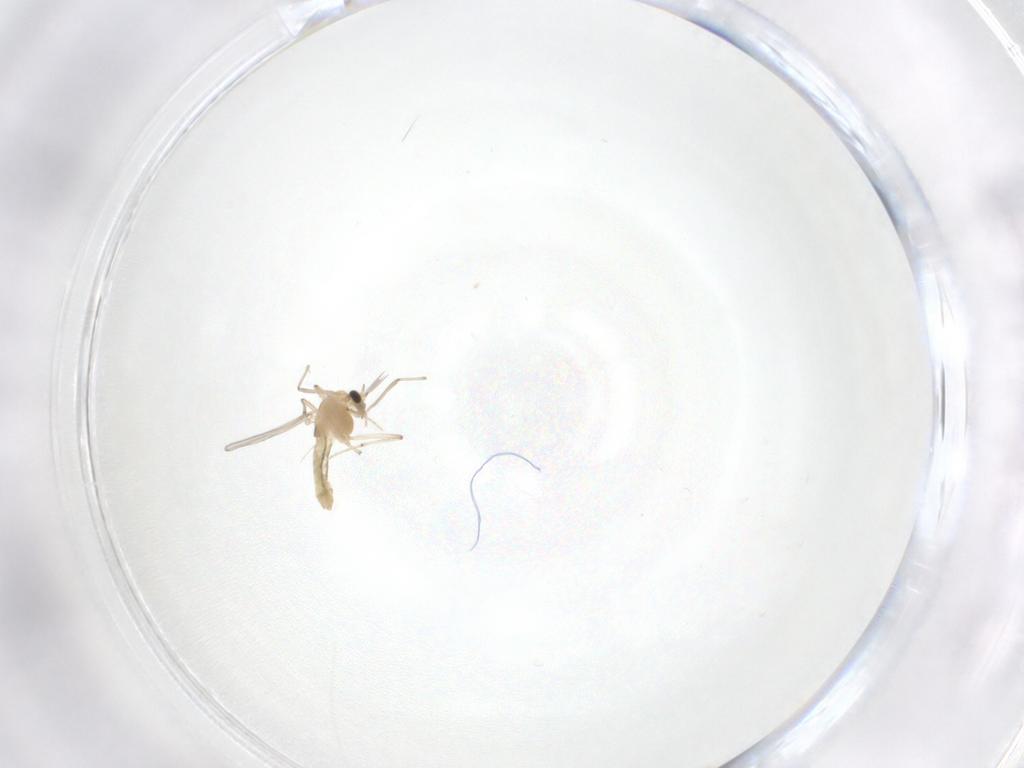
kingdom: Animalia
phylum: Arthropoda
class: Insecta
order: Diptera
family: Chironomidae
